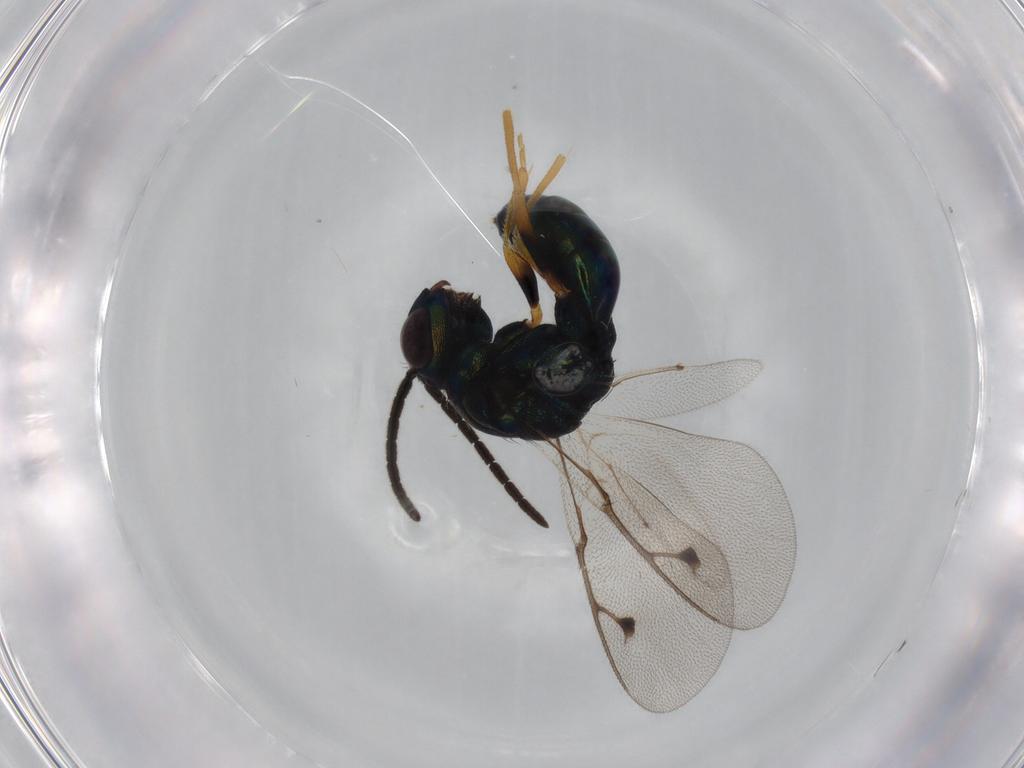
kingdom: Animalia
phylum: Arthropoda
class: Insecta
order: Hymenoptera
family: Pteromalidae
